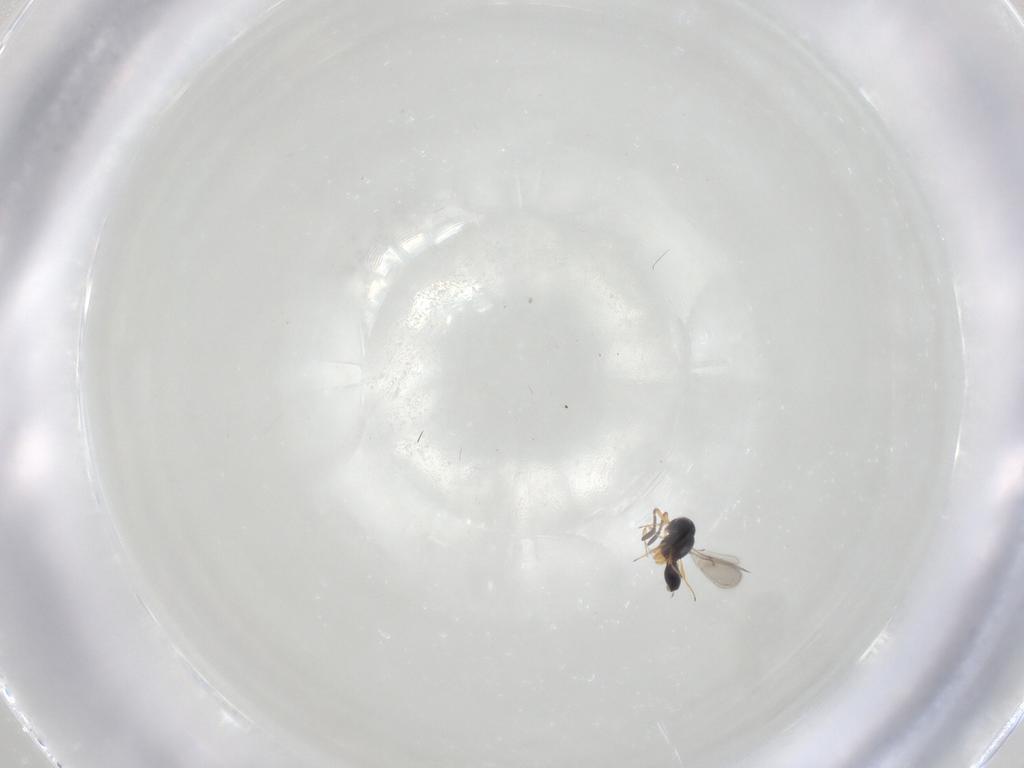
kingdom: Animalia
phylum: Arthropoda
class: Insecta
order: Hymenoptera
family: Scelionidae
